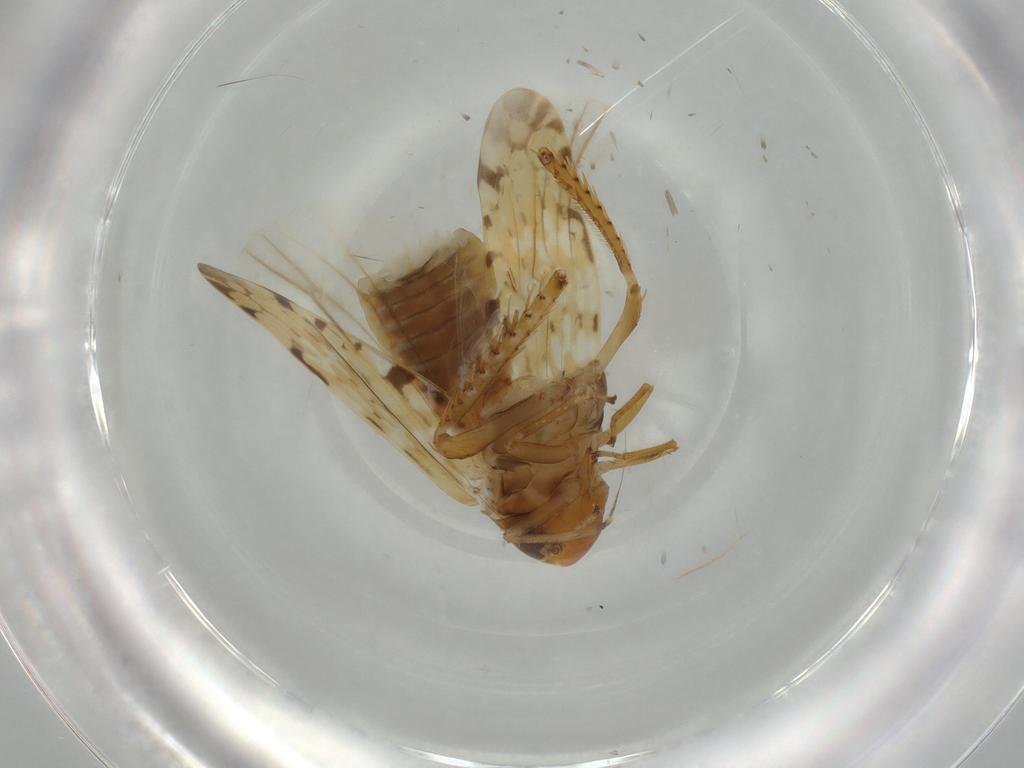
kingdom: Animalia
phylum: Arthropoda
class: Insecta
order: Hemiptera
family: Cicadellidae
